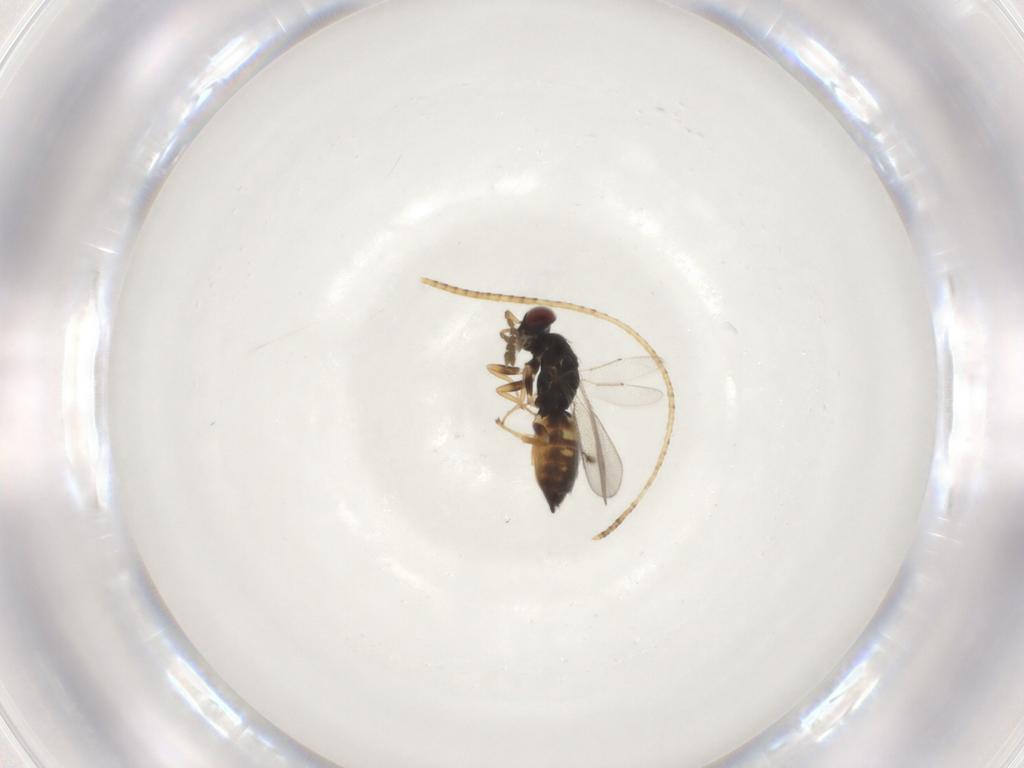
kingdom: Animalia
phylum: Arthropoda
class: Insecta
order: Hymenoptera
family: Eulophidae
